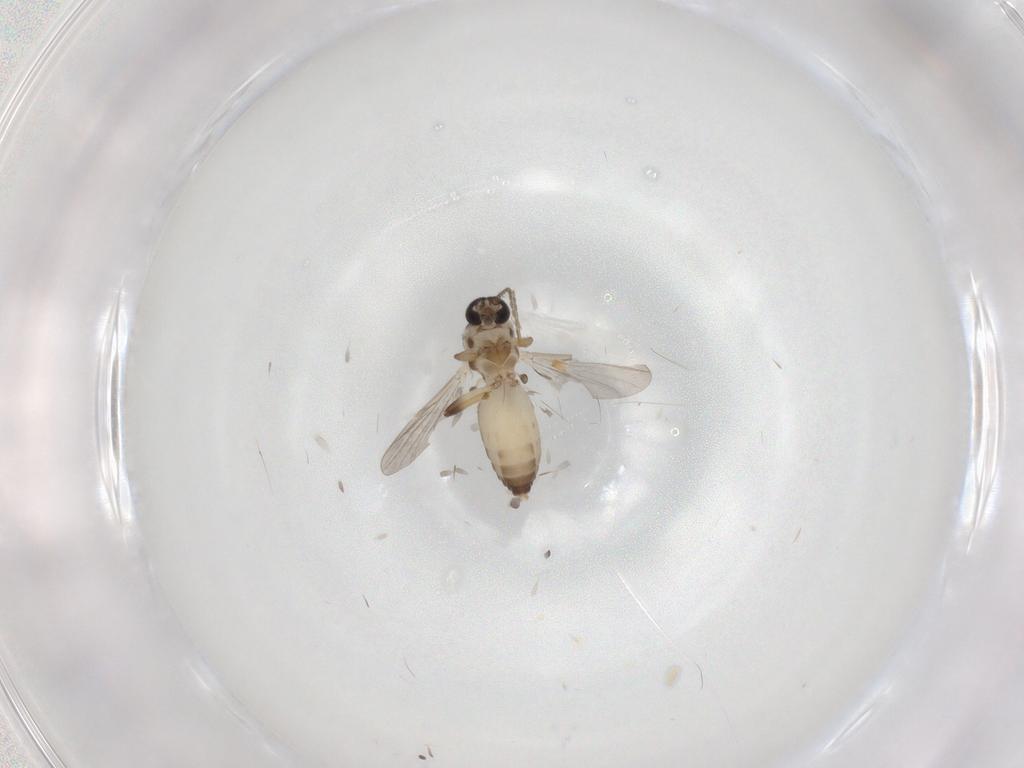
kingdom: Animalia
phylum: Arthropoda
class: Insecta
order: Diptera
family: Ceratopogonidae
